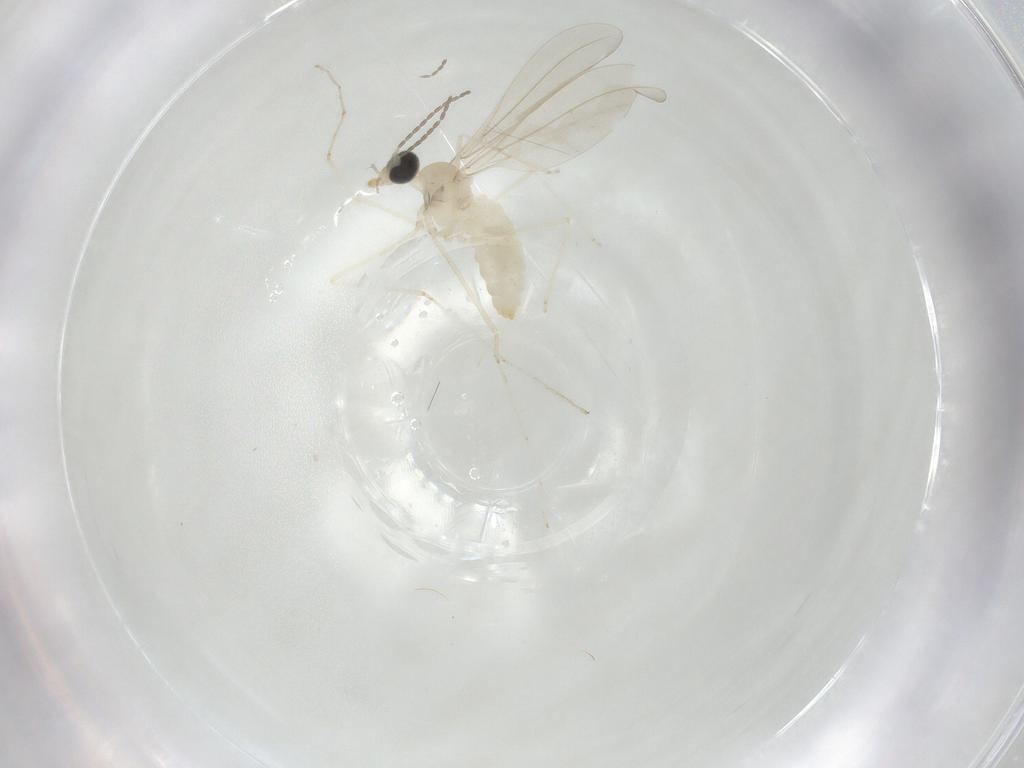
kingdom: Animalia
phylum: Arthropoda
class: Insecta
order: Diptera
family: Cecidomyiidae
